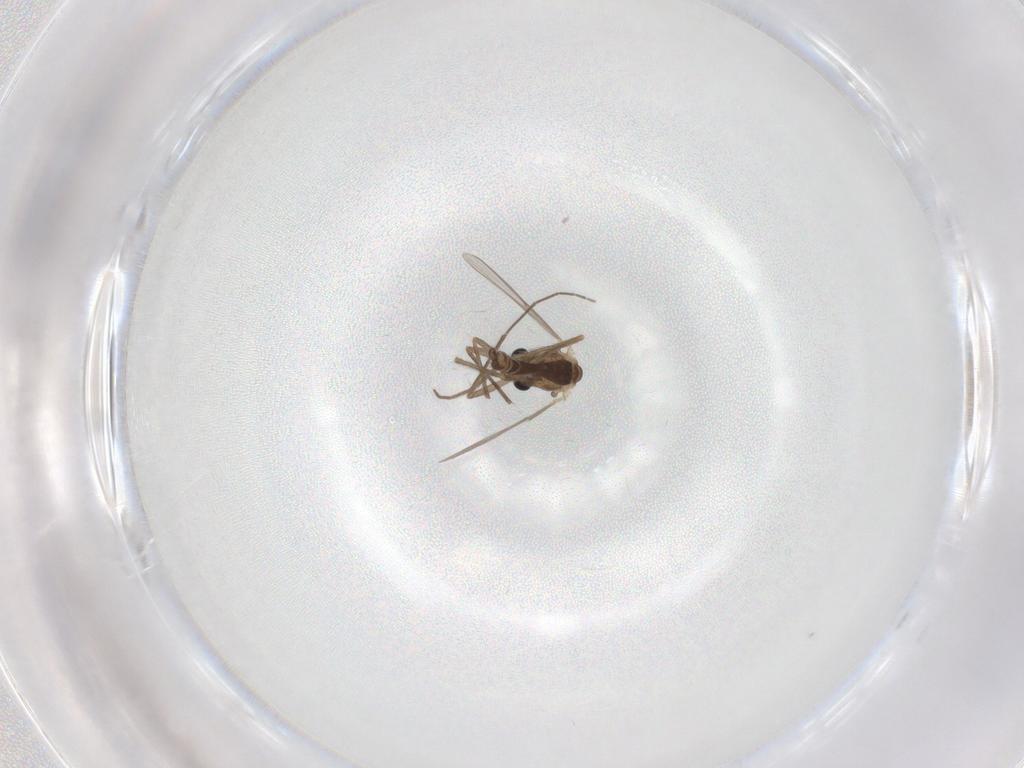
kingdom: Animalia
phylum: Arthropoda
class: Insecta
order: Diptera
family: Chironomidae
